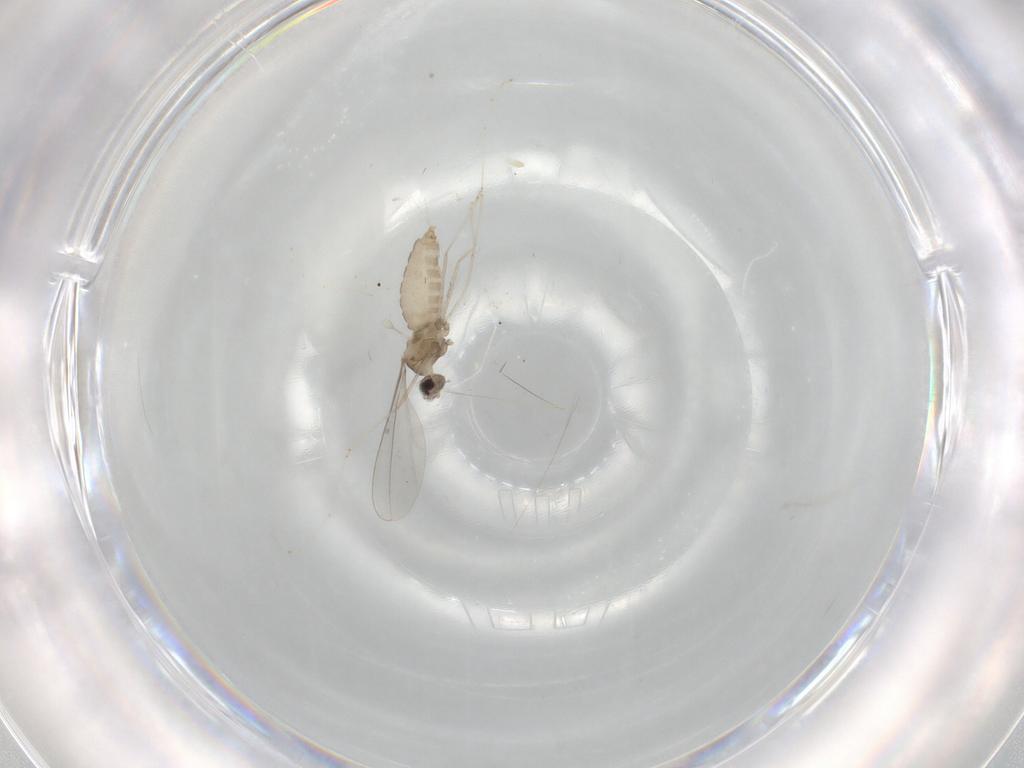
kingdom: Animalia
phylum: Arthropoda
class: Insecta
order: Diptera
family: Cecidomyiidae
